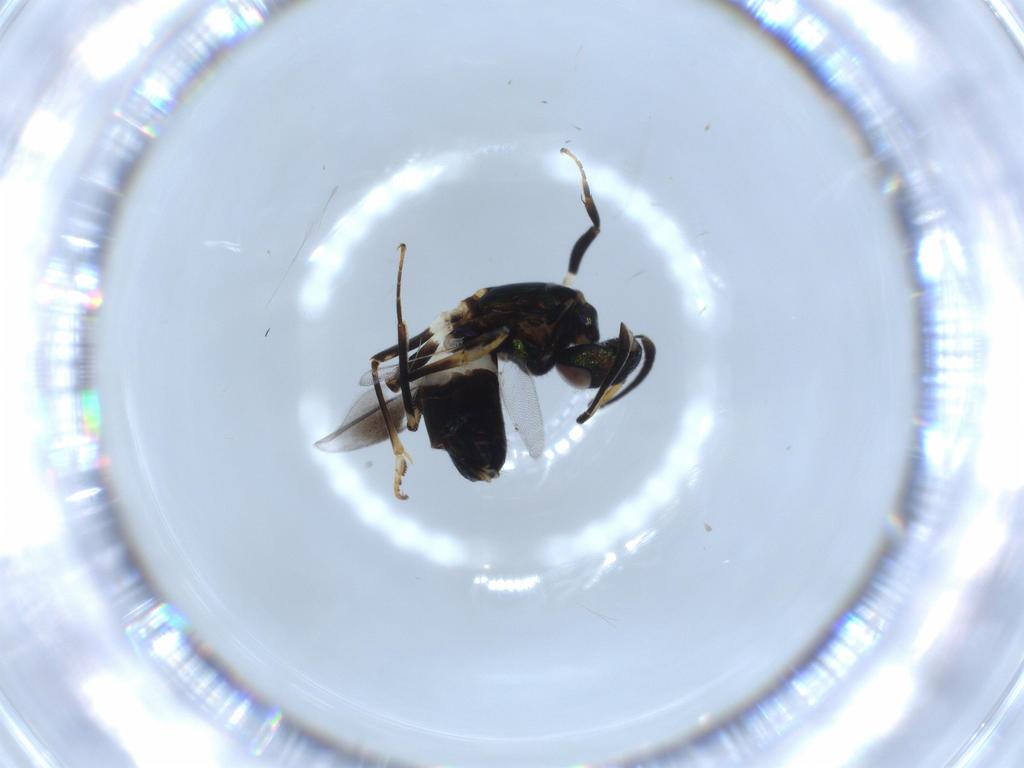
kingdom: Animalia
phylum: Arthropoda
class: Insecta
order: Hymenoptera
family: Eupelmidae
